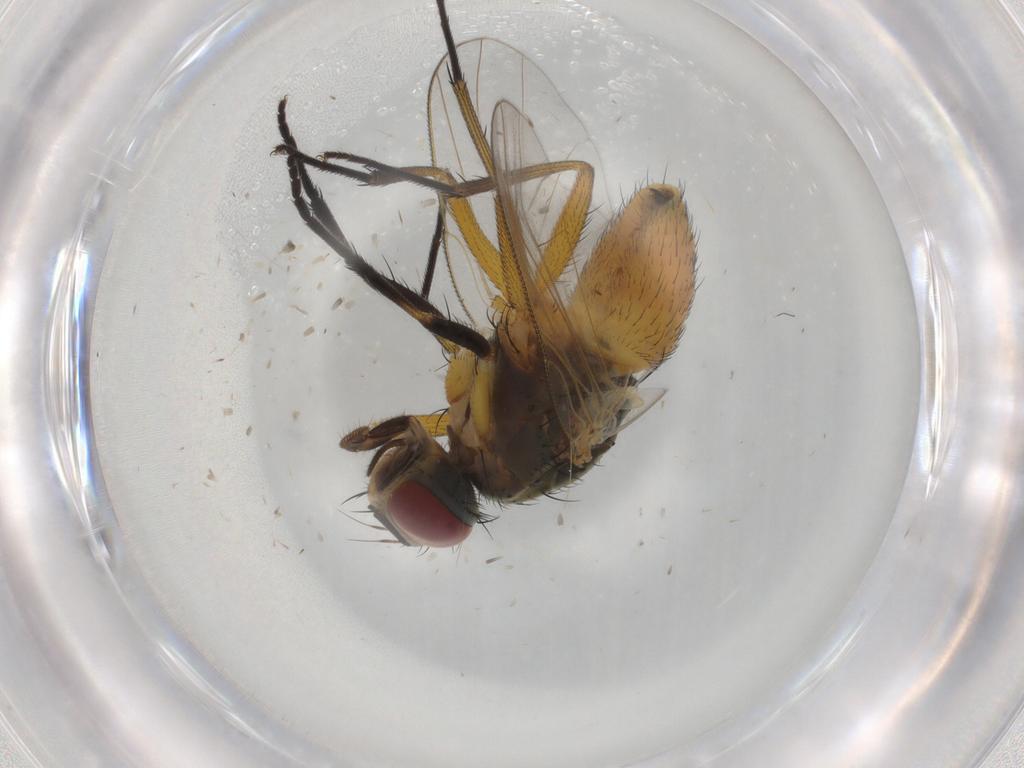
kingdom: Animalia
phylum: Arthropoda
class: Insecta
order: Diptera
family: Muscidae
